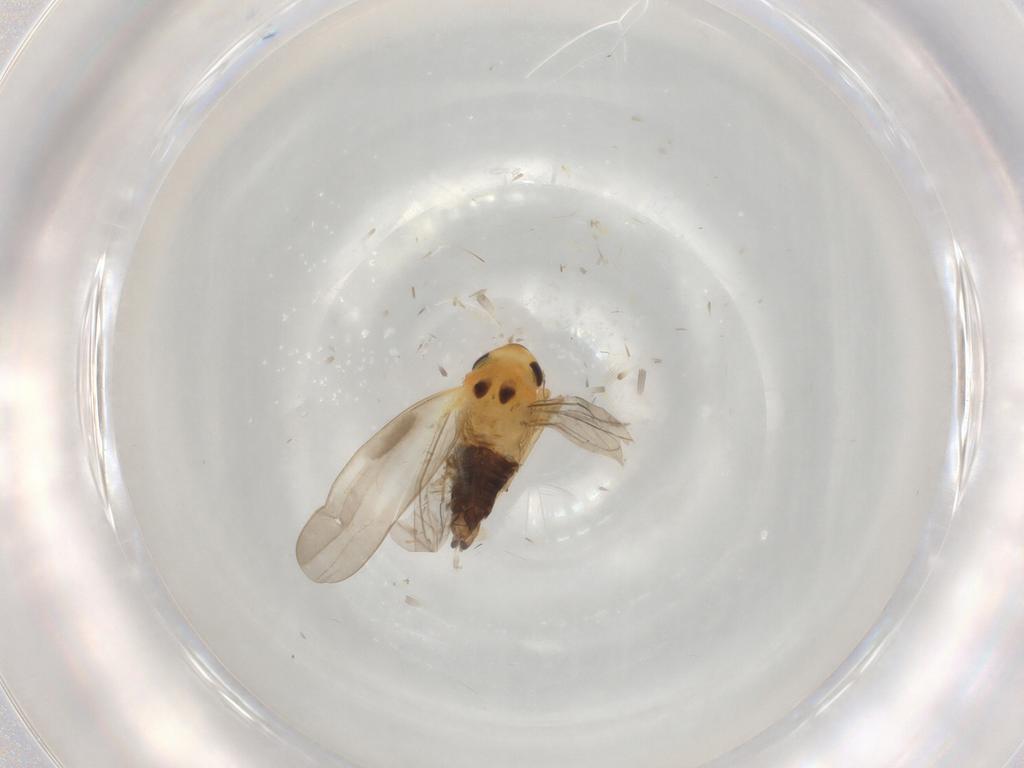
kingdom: Animalia
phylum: Arthropoda
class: Insecta
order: Hemiptera
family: Cicadellidae
